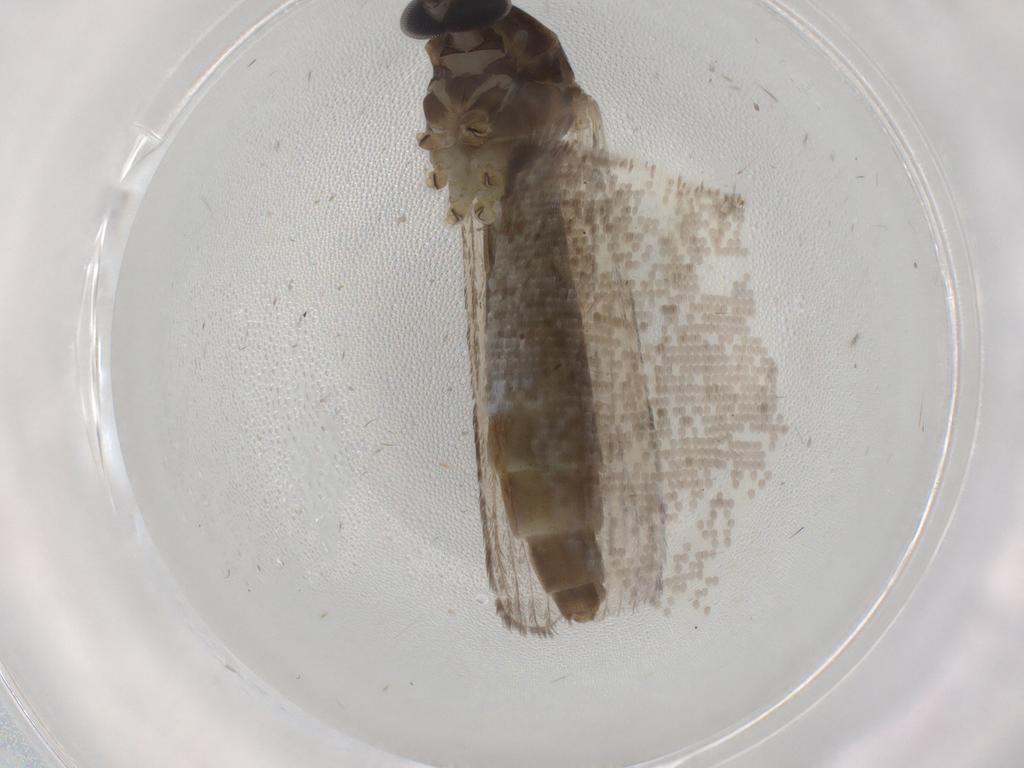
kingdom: Animalia
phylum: Arthropoda
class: Insecta
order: Diptera
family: Muscidae
